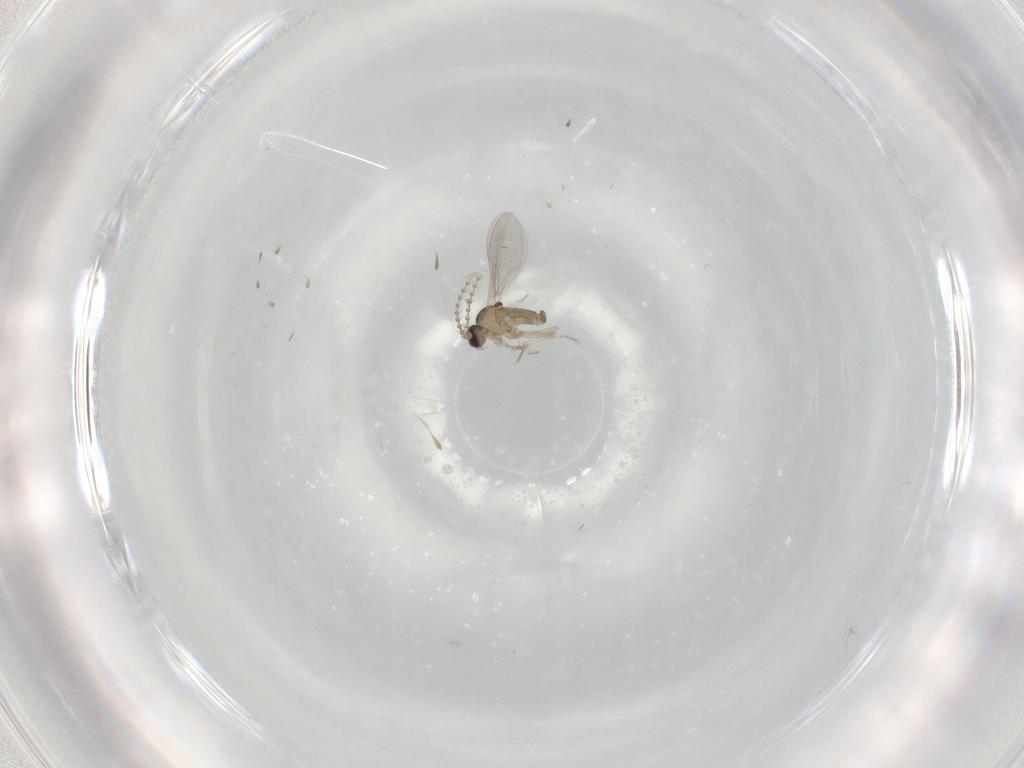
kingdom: Animalia
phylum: Arthropoda
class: Insecta
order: Diptera
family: Cecidomyiidae
